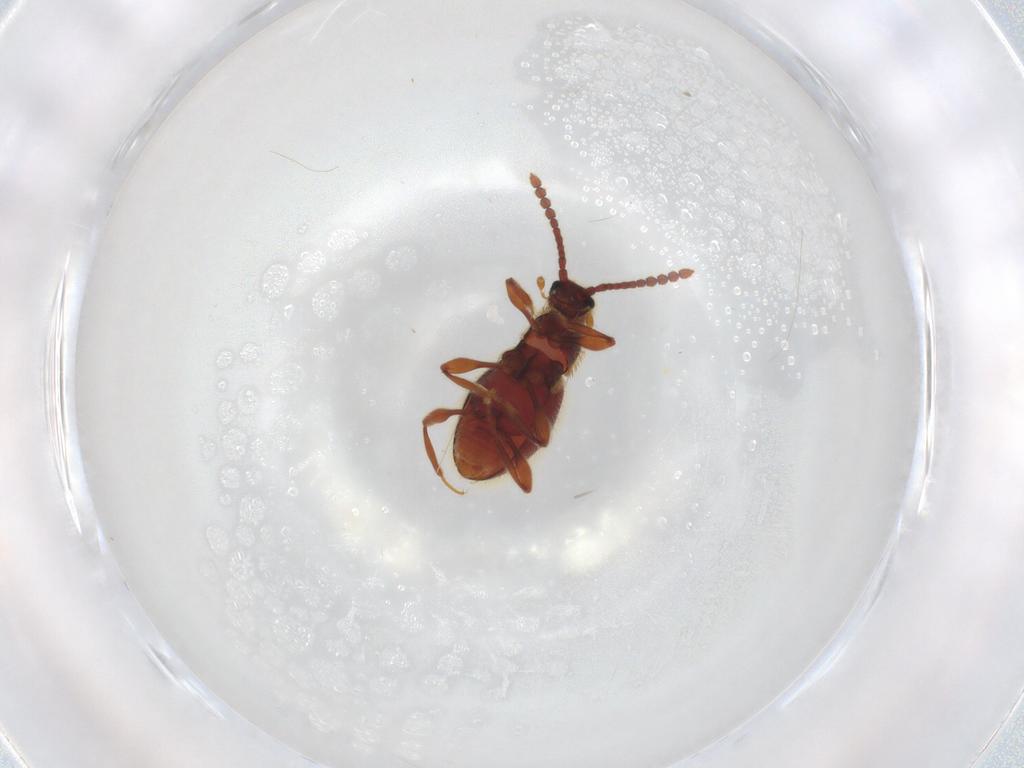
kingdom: Animalia
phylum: Arthropoda
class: Insecta
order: Coleoptera
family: Staphylinidae
